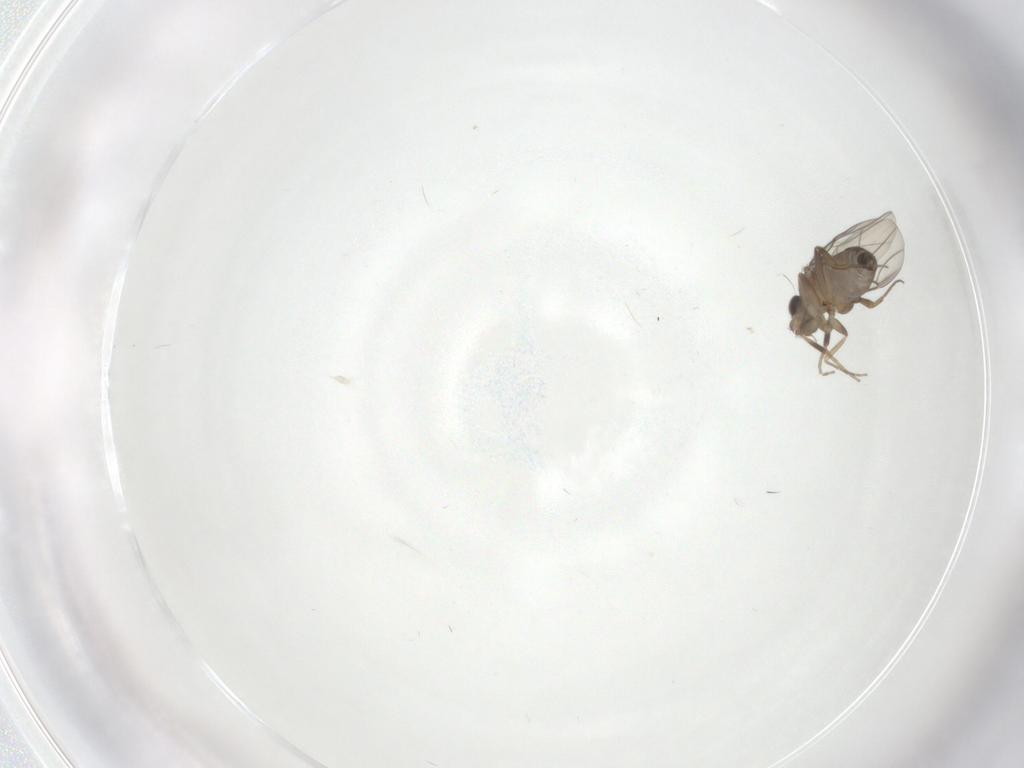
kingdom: Animalia
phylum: Arthropoda
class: Insecta
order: Diptera
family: Phoridae
